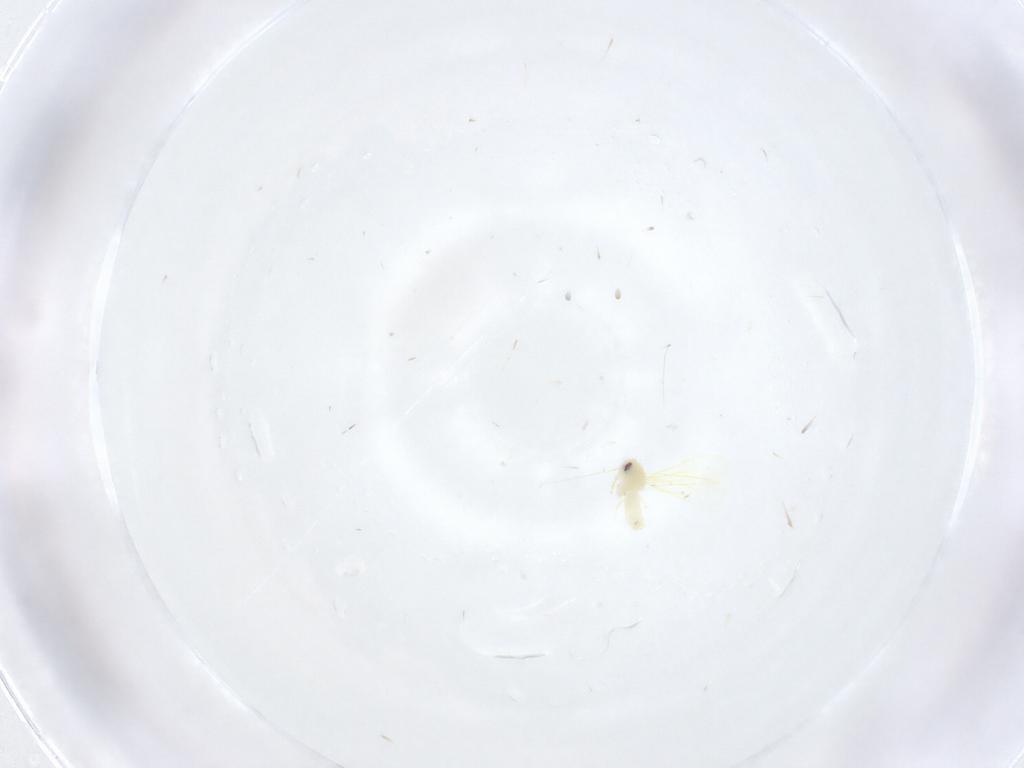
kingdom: Animalia
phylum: Arthropoda
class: Insecta
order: Hemiptera
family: Aleyrodidae
